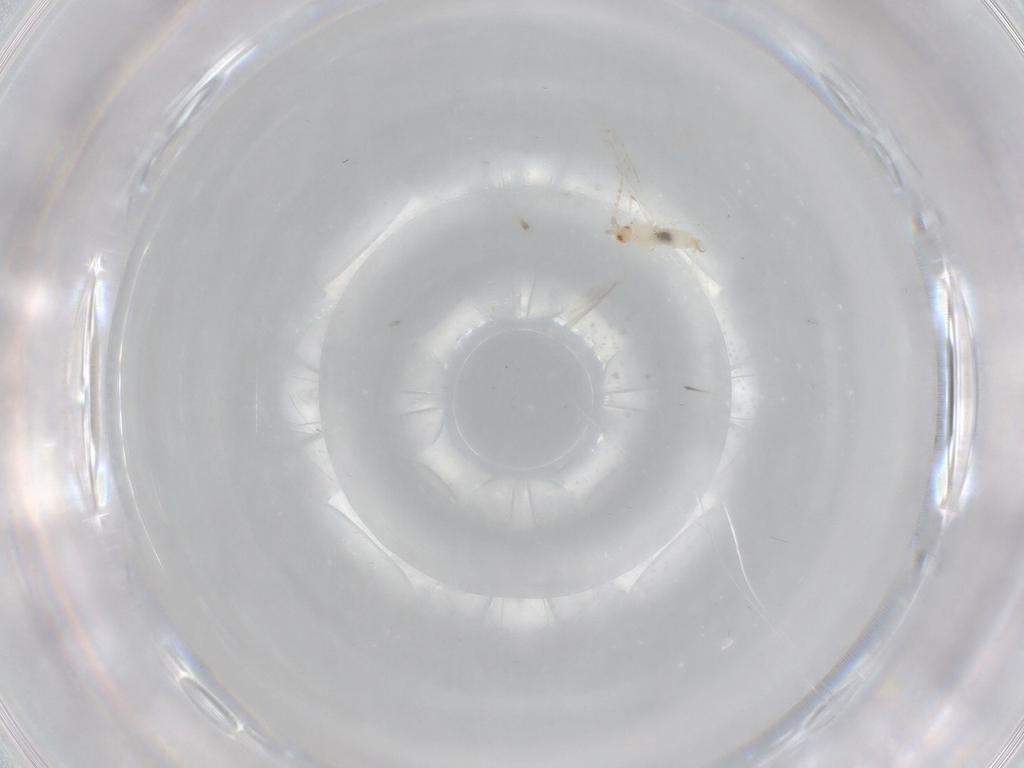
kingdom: Animalia
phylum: Arthropoda
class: Insecta
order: Diptera
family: Cecidomyiidae
